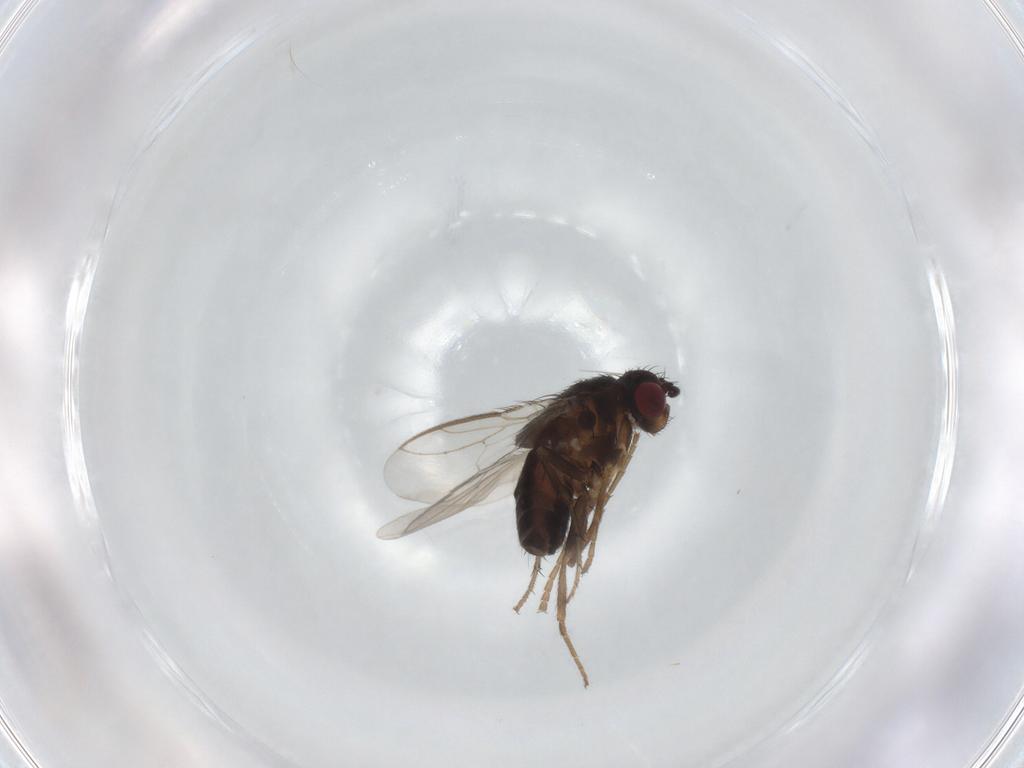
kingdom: Animalia
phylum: Arthropoda
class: Insecta
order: Diptera
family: Sphaeroceridae
